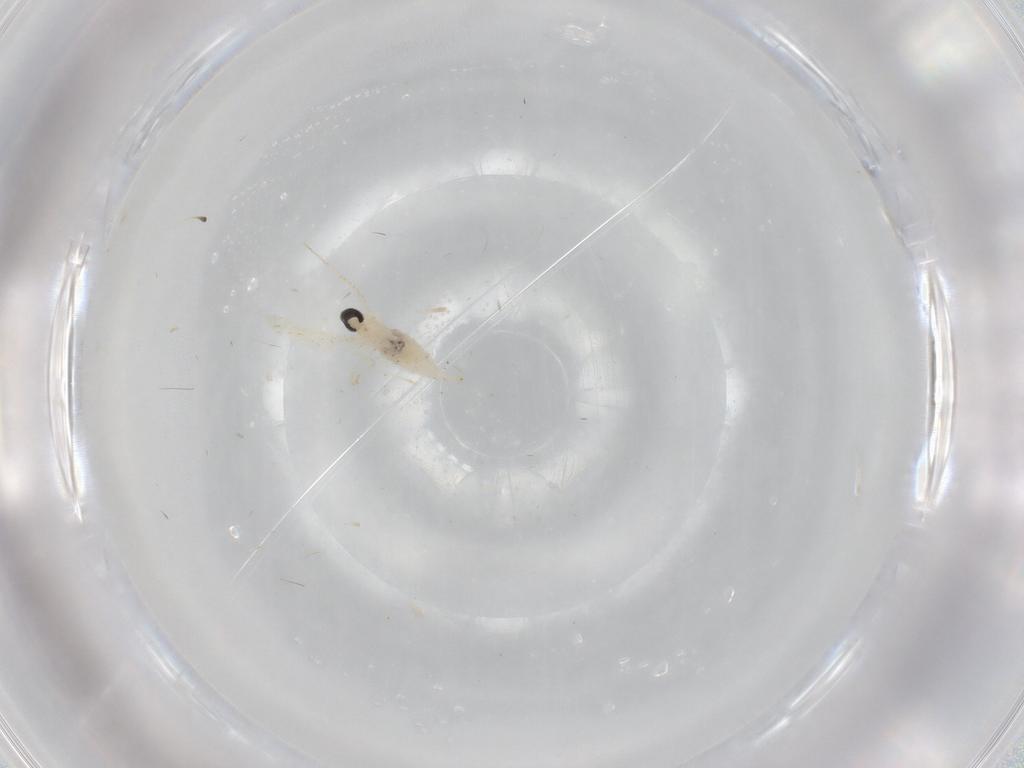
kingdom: Animalia
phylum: Arthropoda
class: Insecta
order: Diptera
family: Cecidomyiidae
